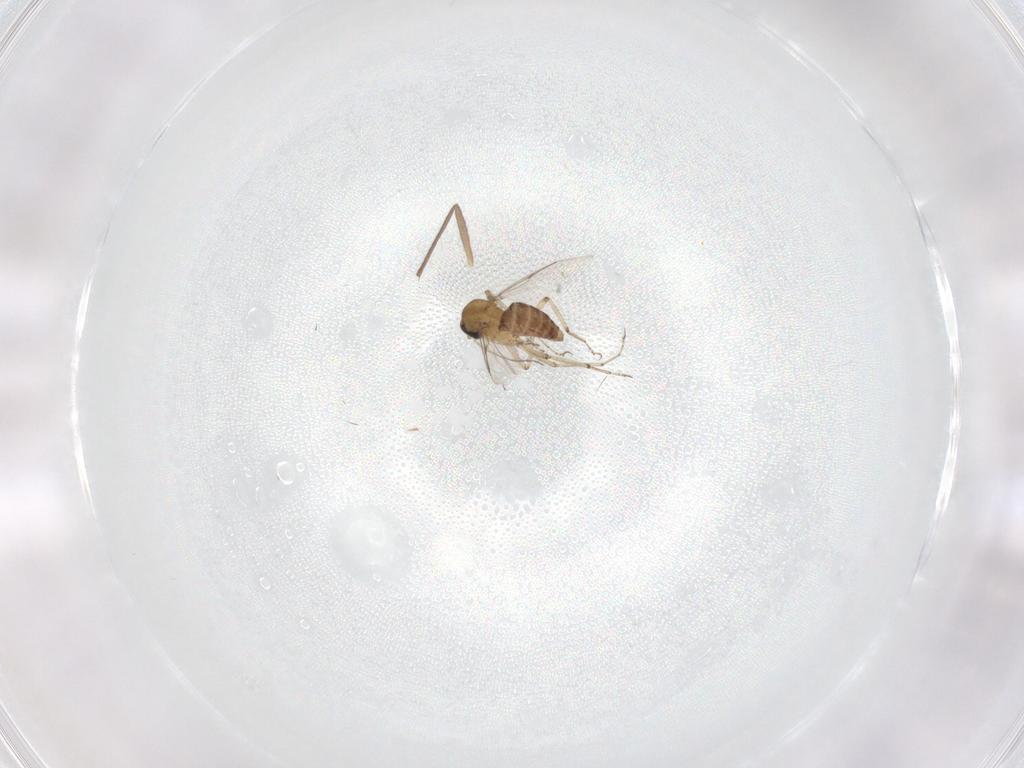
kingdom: Animalia
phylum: Arthropoda
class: Insecta
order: Diptera
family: Ceratopogonidae
